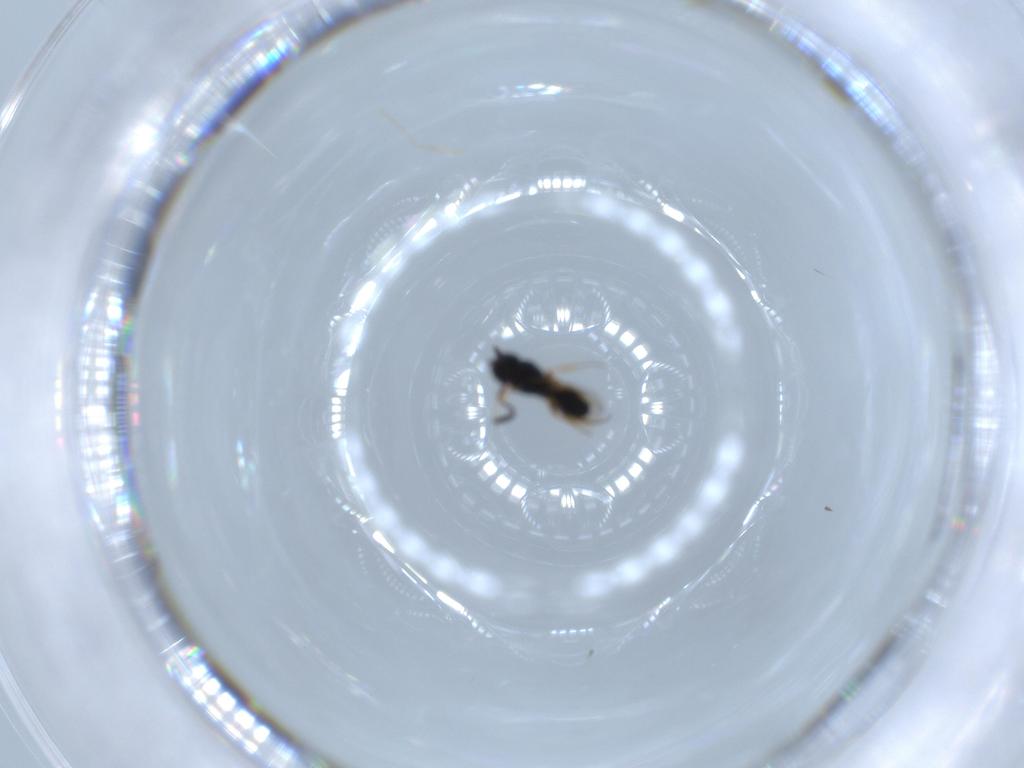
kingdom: Animalia
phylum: Arthropoda
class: Insecta
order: Hymenoptera
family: Scelionidae
